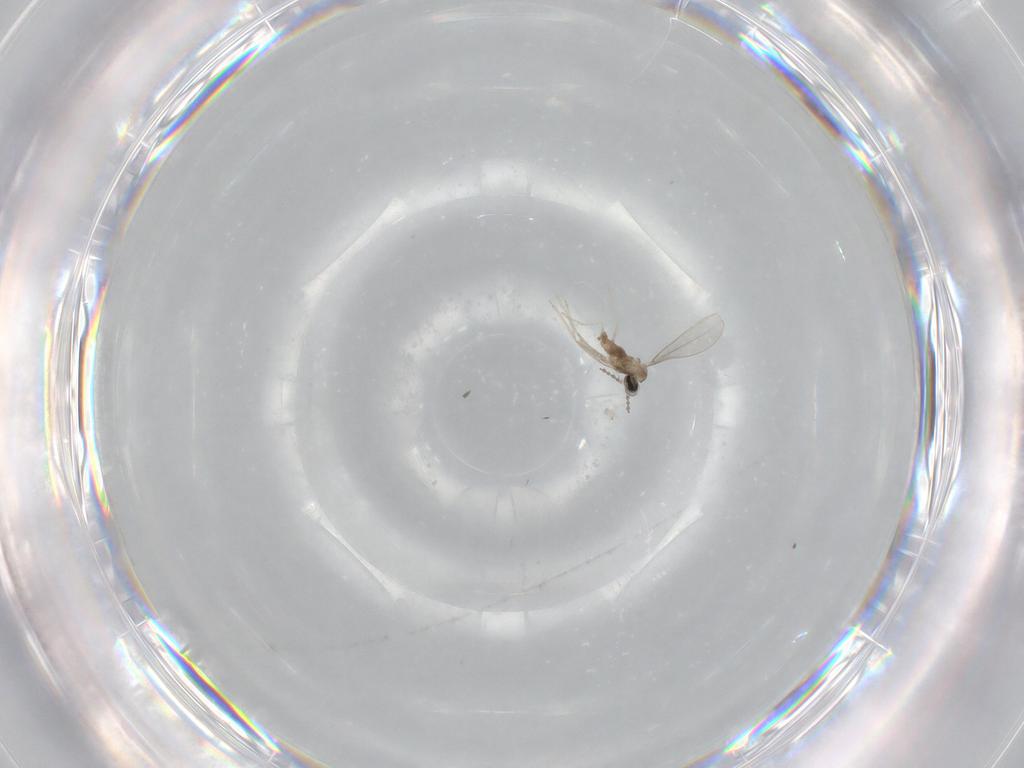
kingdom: Animalia
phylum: Arthropoda
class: Insecta
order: Diptera
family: Cecidomyiidae
